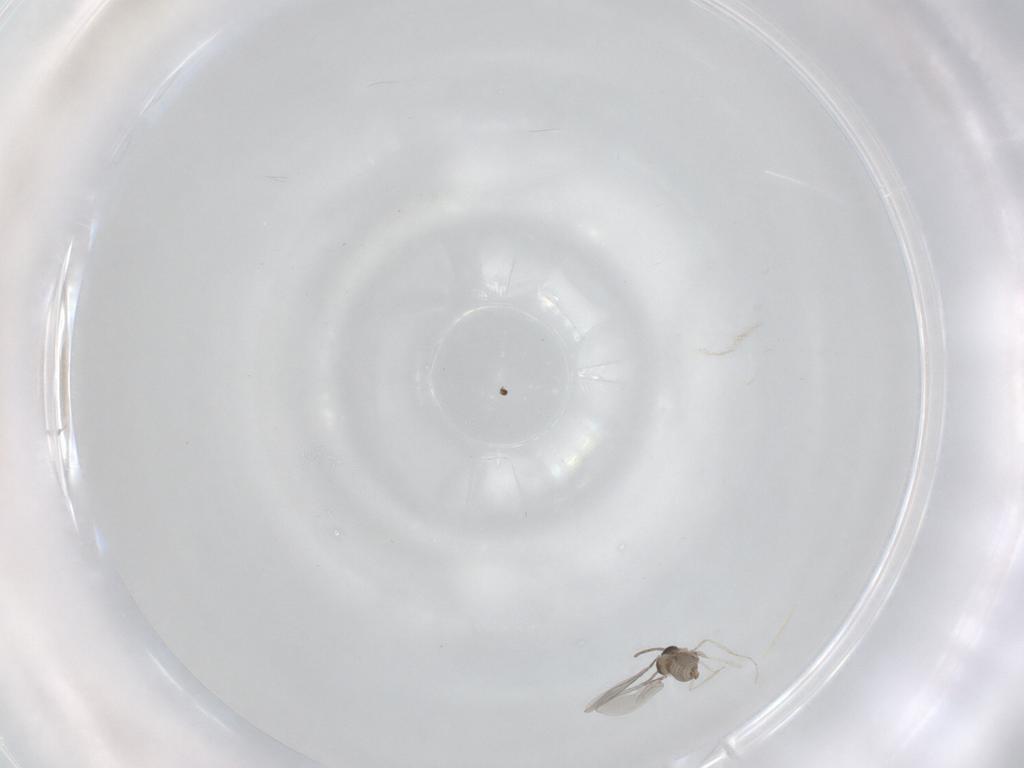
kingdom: Animalia
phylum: Arthropoda
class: Insecta
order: Diptera
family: Cecidomyiidae
